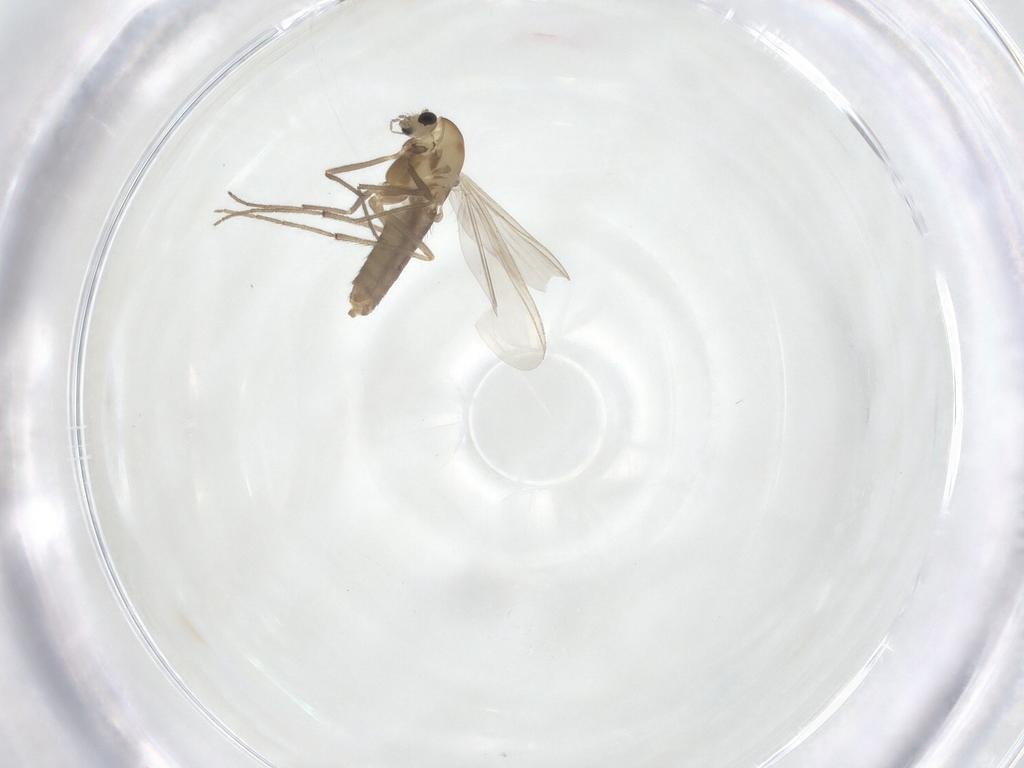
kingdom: Animalia
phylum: Arthropoda
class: Insecta
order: Diptera
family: Chironomidae
